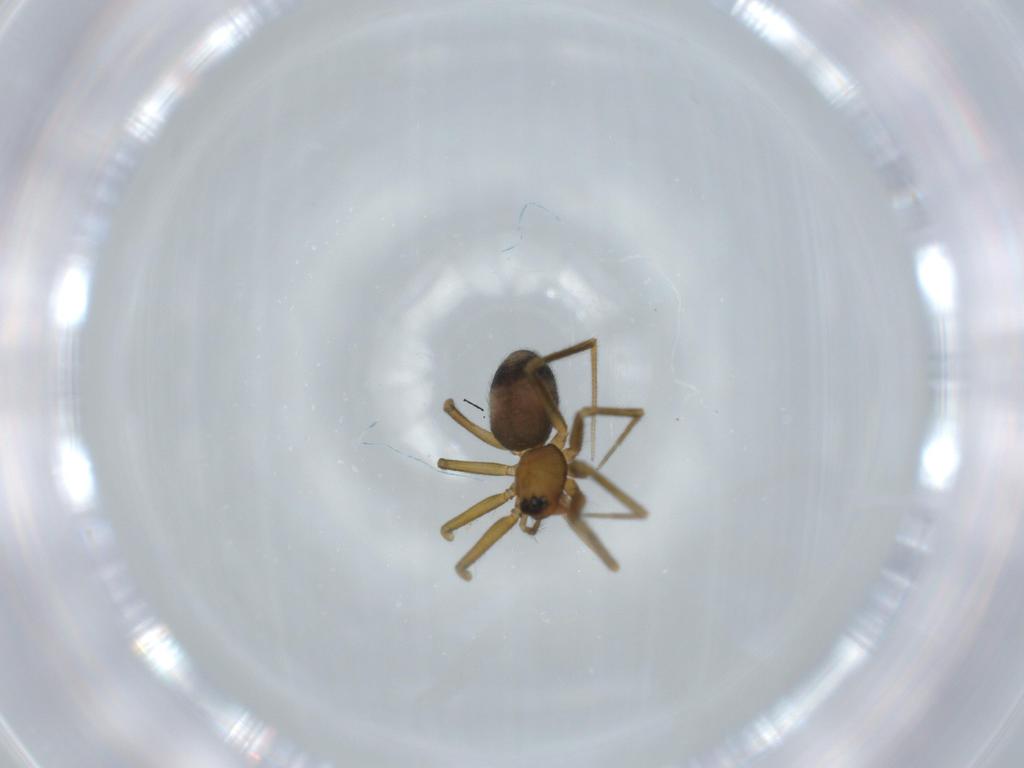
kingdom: Animalia
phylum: Arthropoda
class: Arachnida
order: Araneae
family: Linyphiidae
